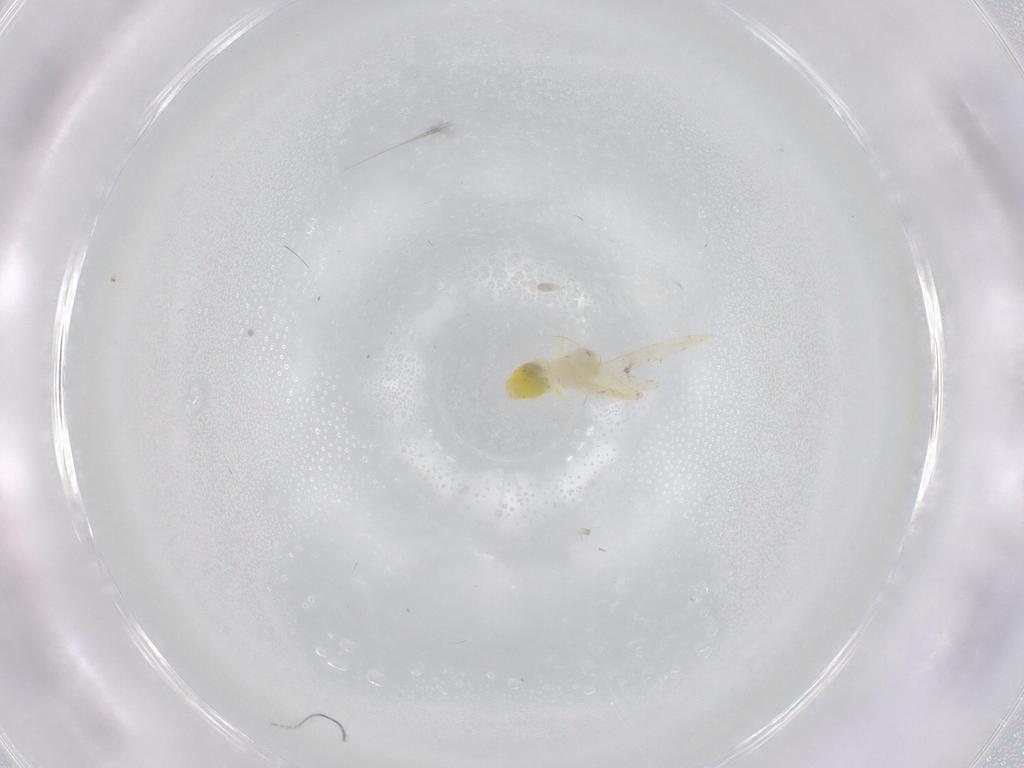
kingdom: Animalia
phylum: Arthropoda
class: Insecta
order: Hemiptera
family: Aleyrodidae
